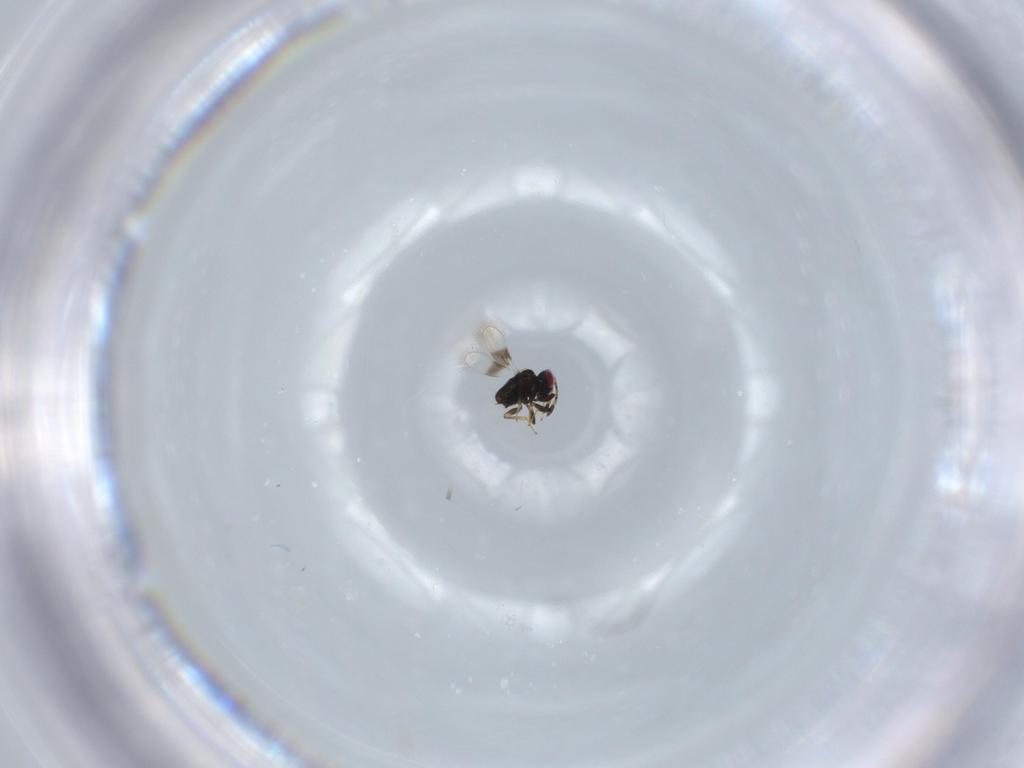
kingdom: Animalia
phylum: Arthropoda
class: Insecta
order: Hymenoptera
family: Azotidae
